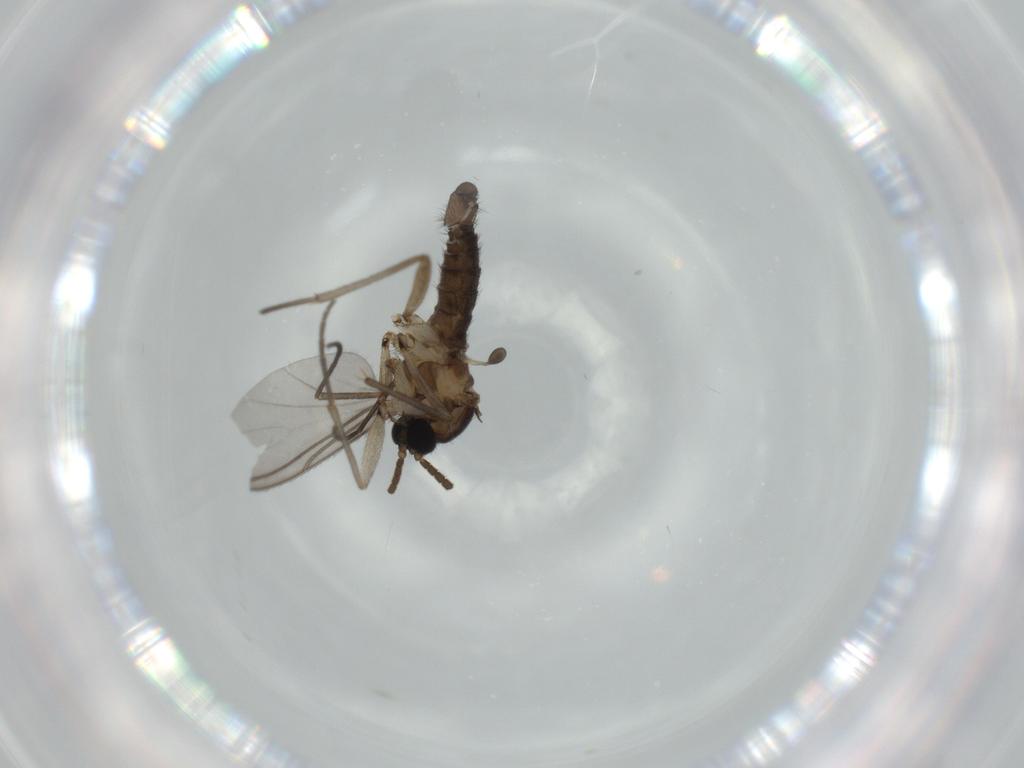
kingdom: Animalia
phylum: Arthropoda
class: Insecta
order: Diptera
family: Sciaridae
